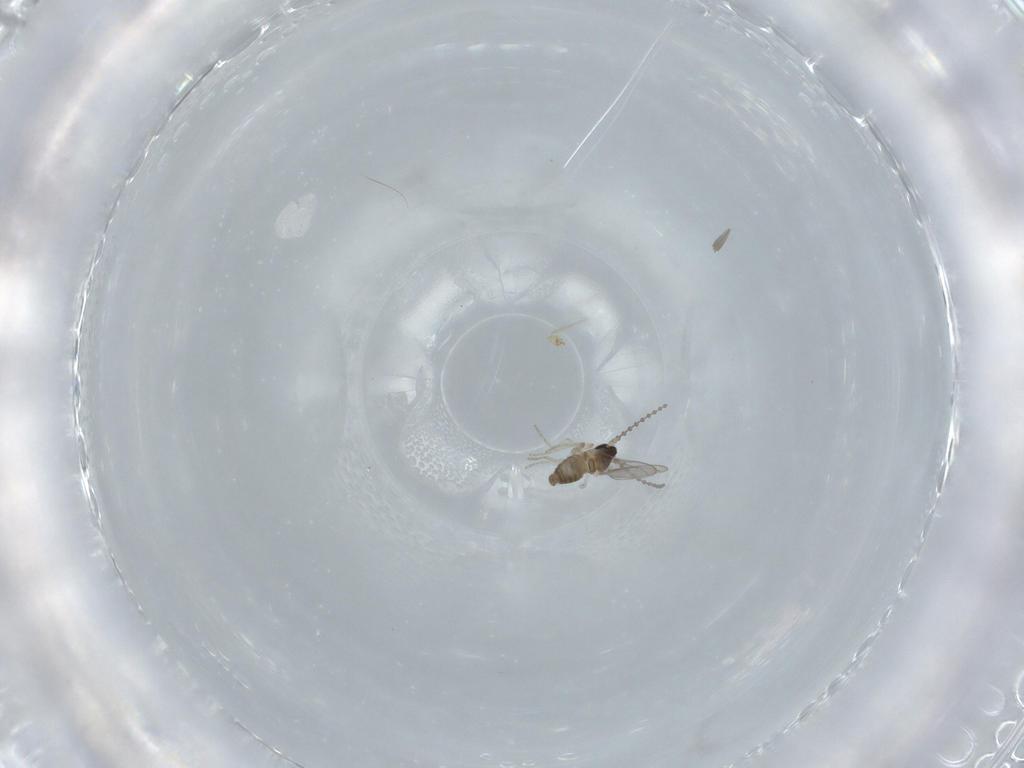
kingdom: Animalia
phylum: Arthropoda
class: Insecta
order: Diptera
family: Cecidomyiidae
